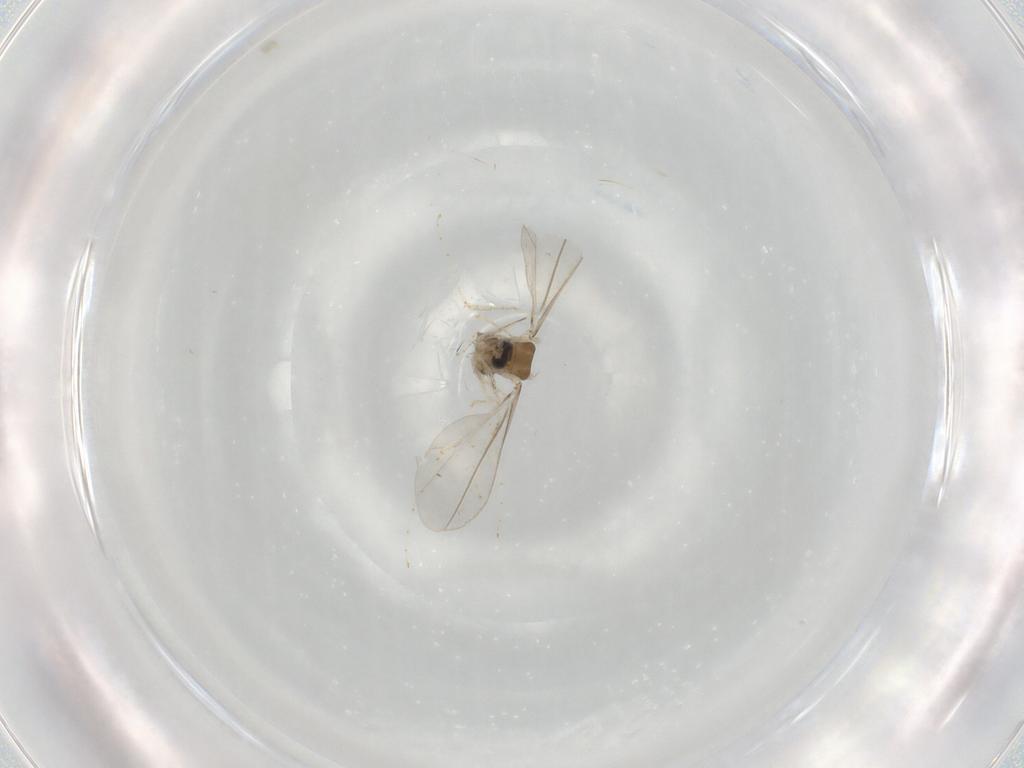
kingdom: Animalia
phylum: Arthropoda
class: Insecta
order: Diptera
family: Cecidomyiidae
